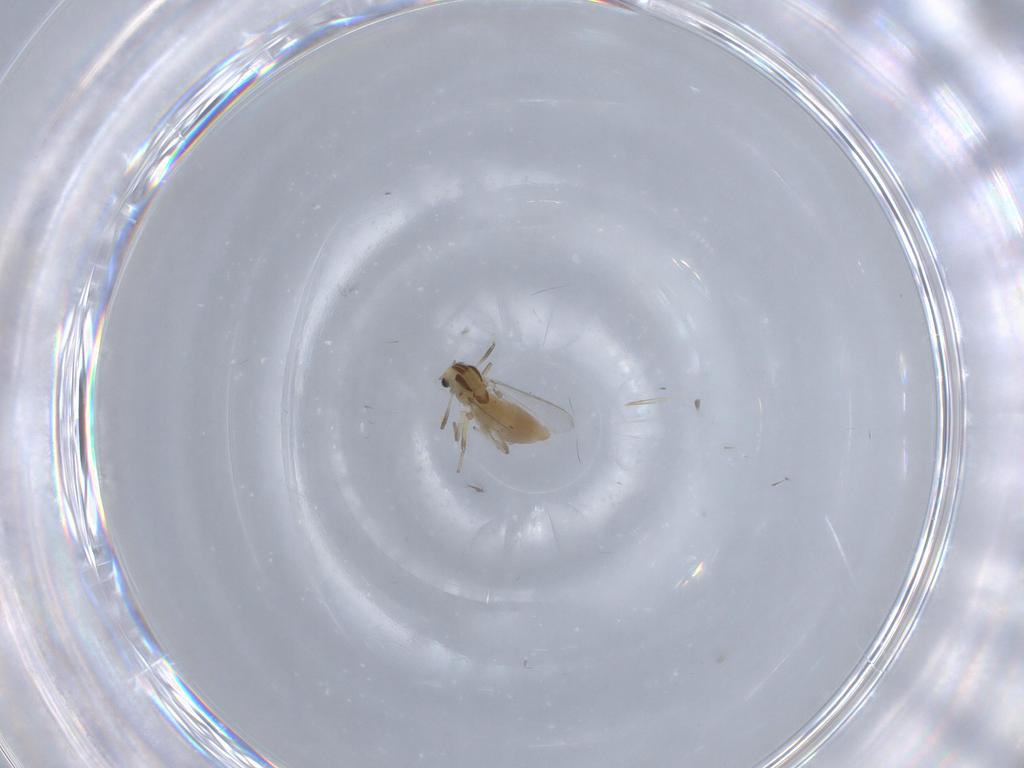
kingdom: Animalia
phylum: Arthropoda
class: Insecta
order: Diptera
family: Chironomidae
